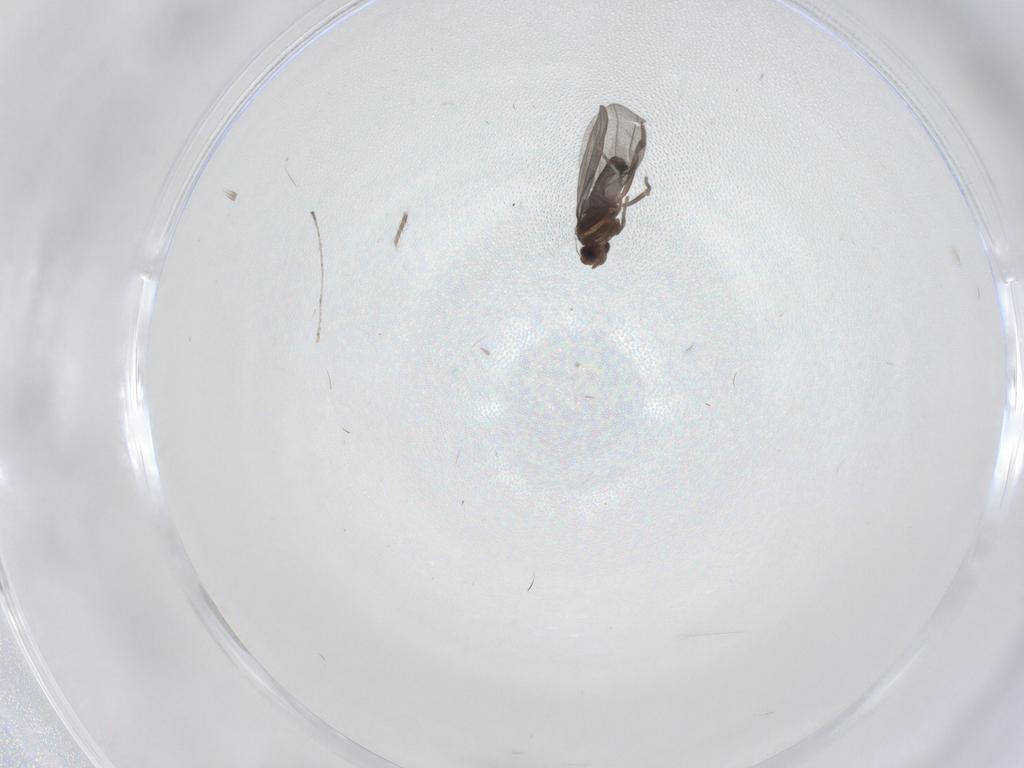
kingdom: Animalia
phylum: Arthropoda
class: Insecta
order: Diptera
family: Phoridae
